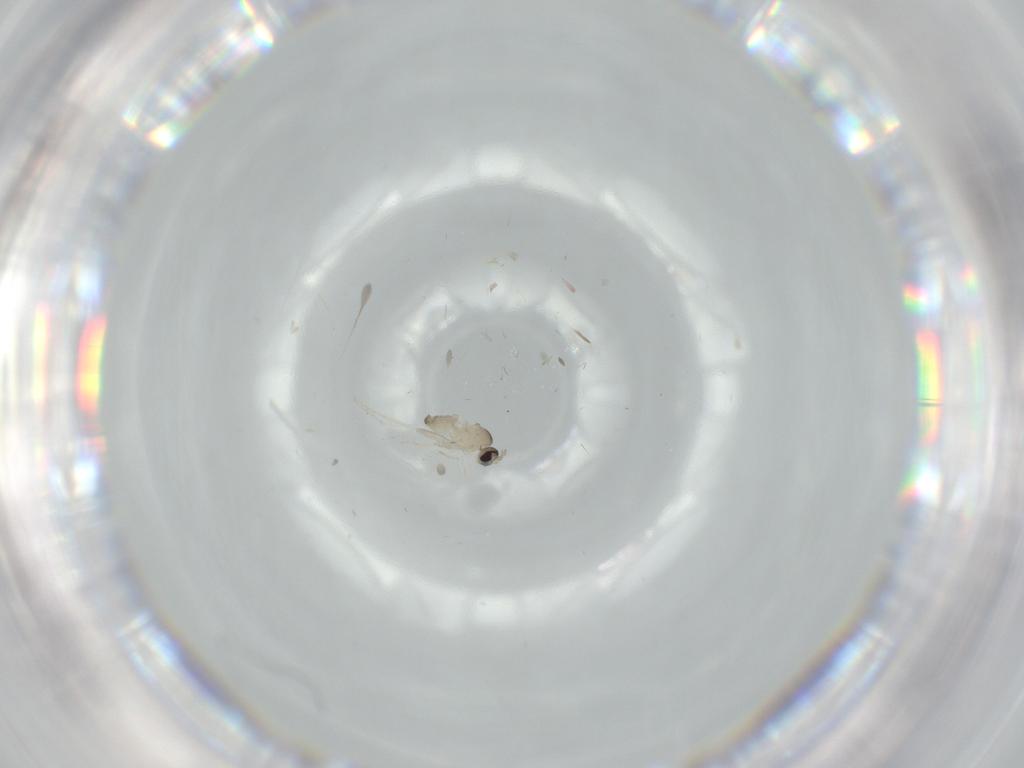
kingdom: Animalia
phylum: Arthropoda
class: Insecta
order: Diptera
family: Cecidomyiidae
